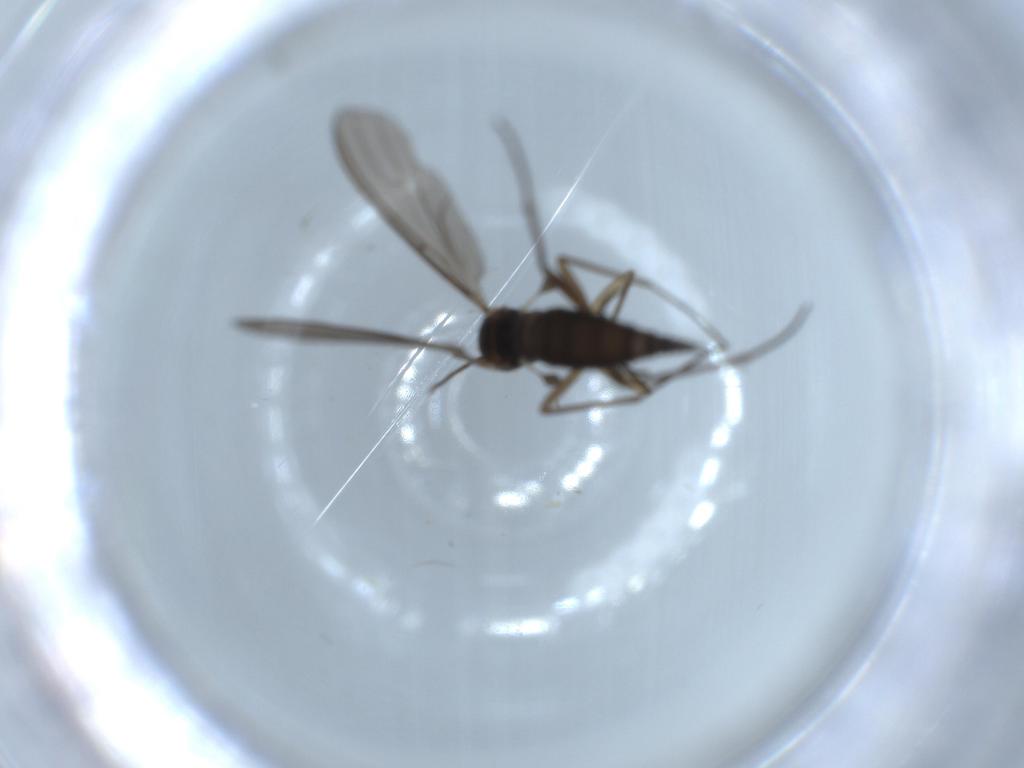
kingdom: Animalia
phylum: Arthropoda
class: Insecta
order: Diptera
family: Sciaridae
